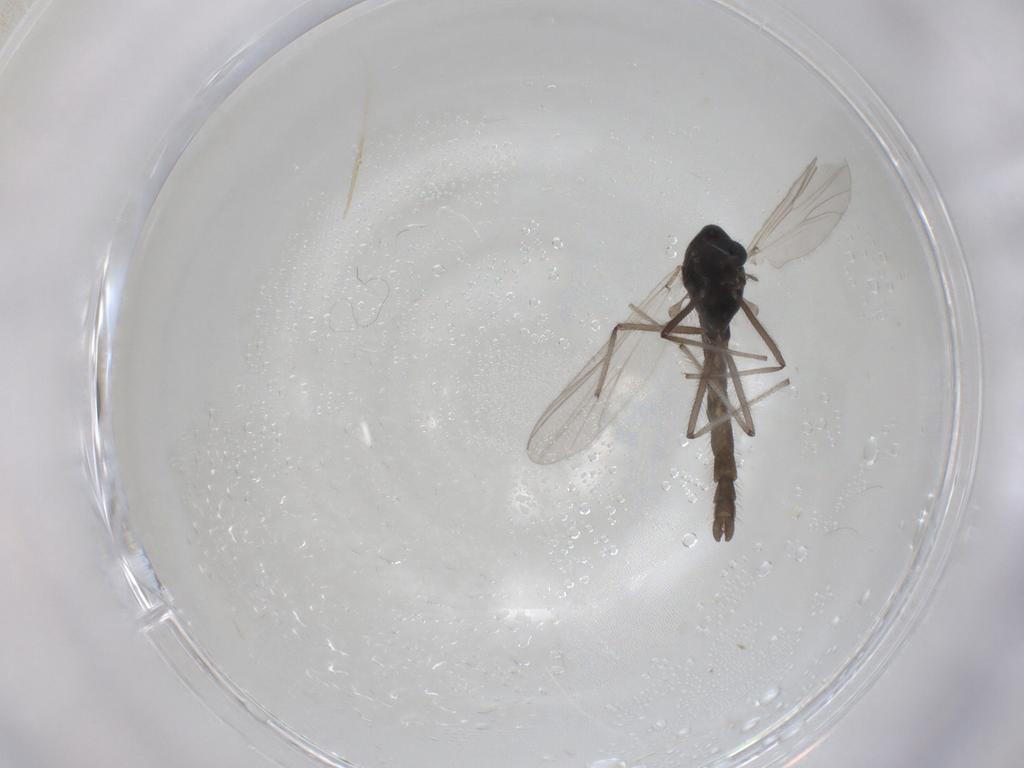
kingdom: Animalia
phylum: Arthropoda
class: Insecta
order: Diptera
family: Chironomidae
